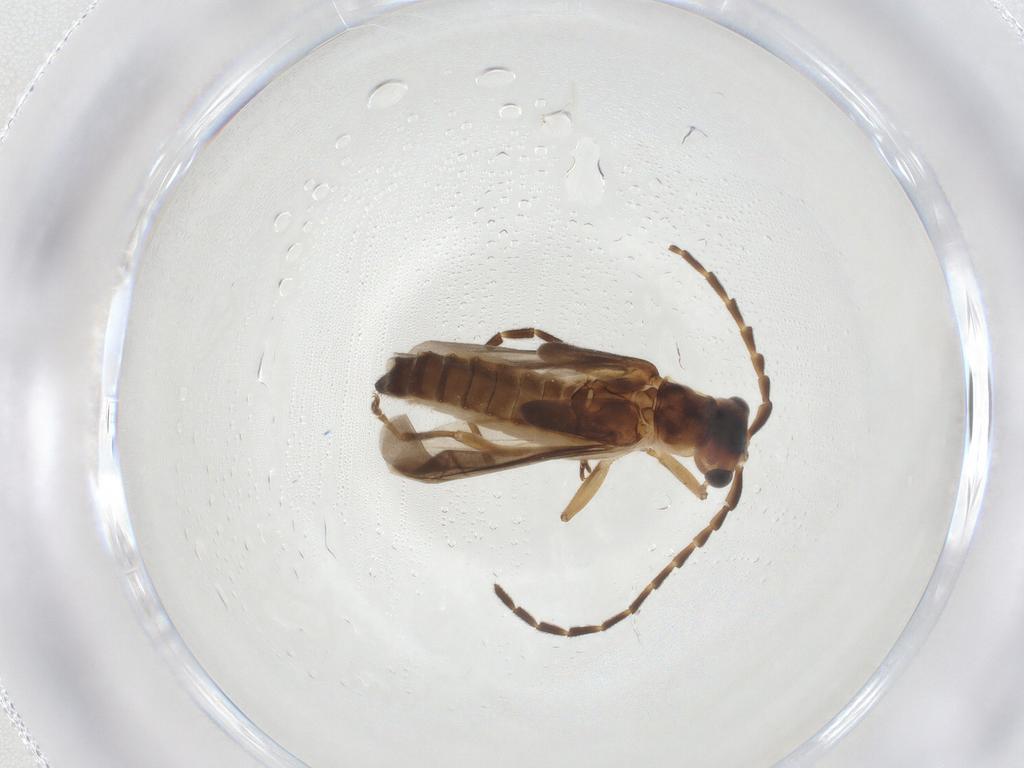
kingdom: Animalia
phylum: Arthropoda
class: Insecta
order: Coleoptera
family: Cantharidae
